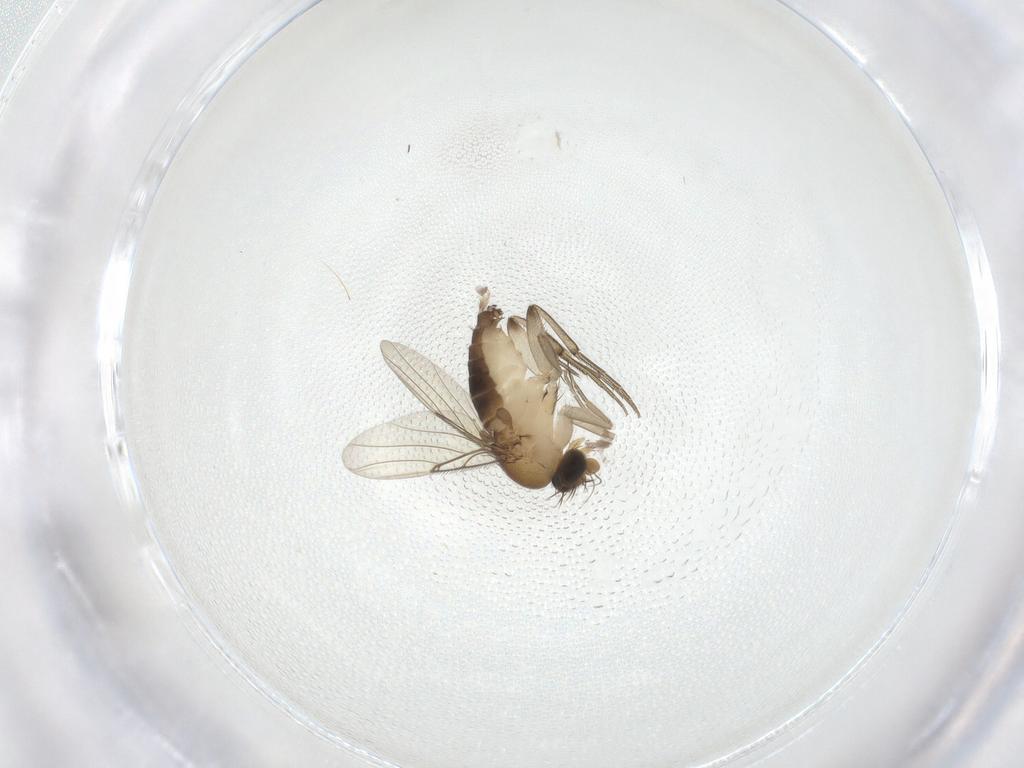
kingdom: Animalia
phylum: Arthropoda
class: Insecta
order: Diptera
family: Phoridae
